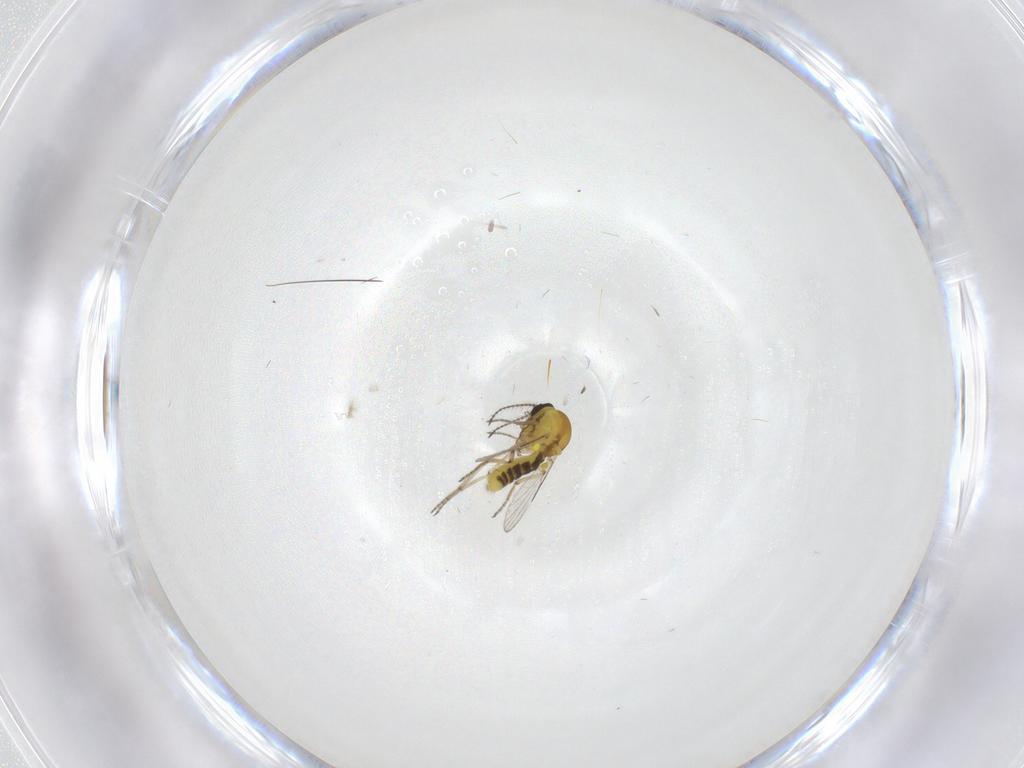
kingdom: Animalia
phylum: Arthropoda
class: Insecta
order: Diptera
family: Ceratopogonidae
